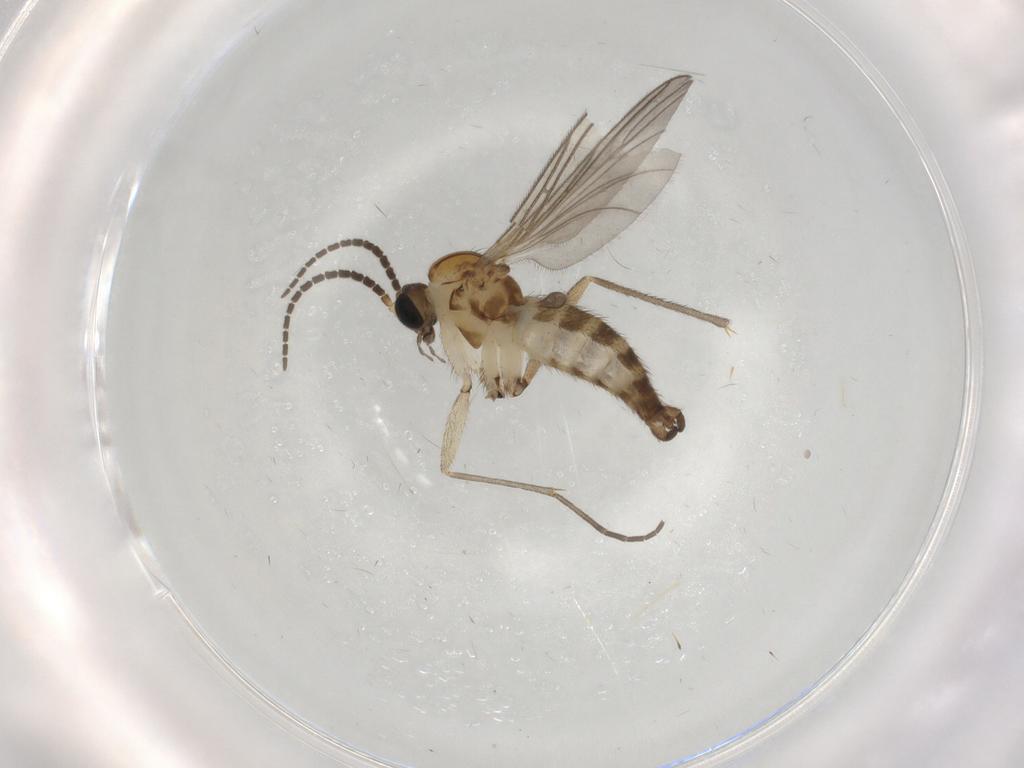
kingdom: Animalia
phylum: Arthropoda
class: Insecta
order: Diptera
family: Sciaridae
